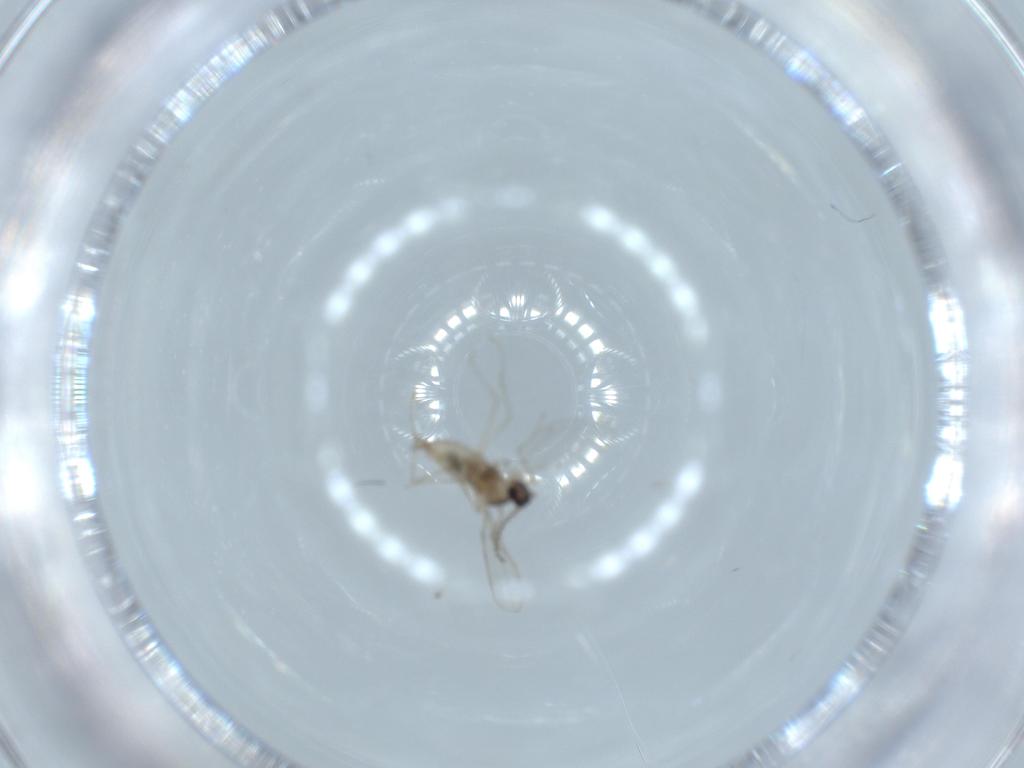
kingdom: Animalia
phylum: Arthropoda
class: Insecta
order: Diptera
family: Cecidomyiidae
